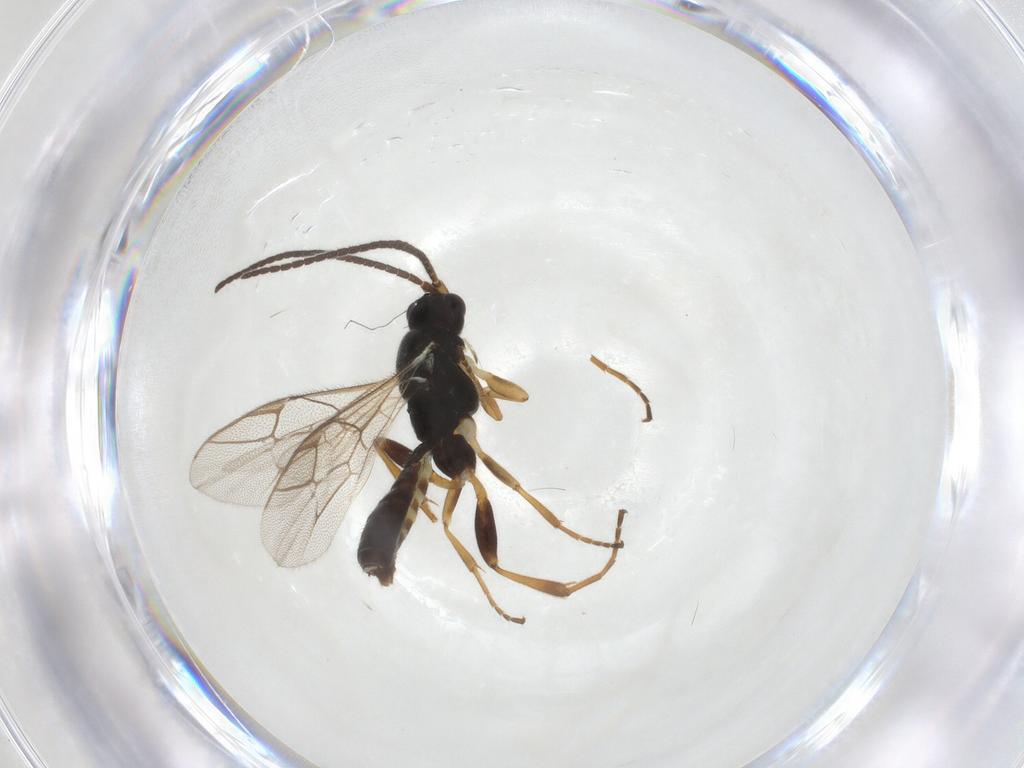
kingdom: Animalia
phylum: Arthropoda
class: Insecta
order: Hymenoptera
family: Ichneumonidae
